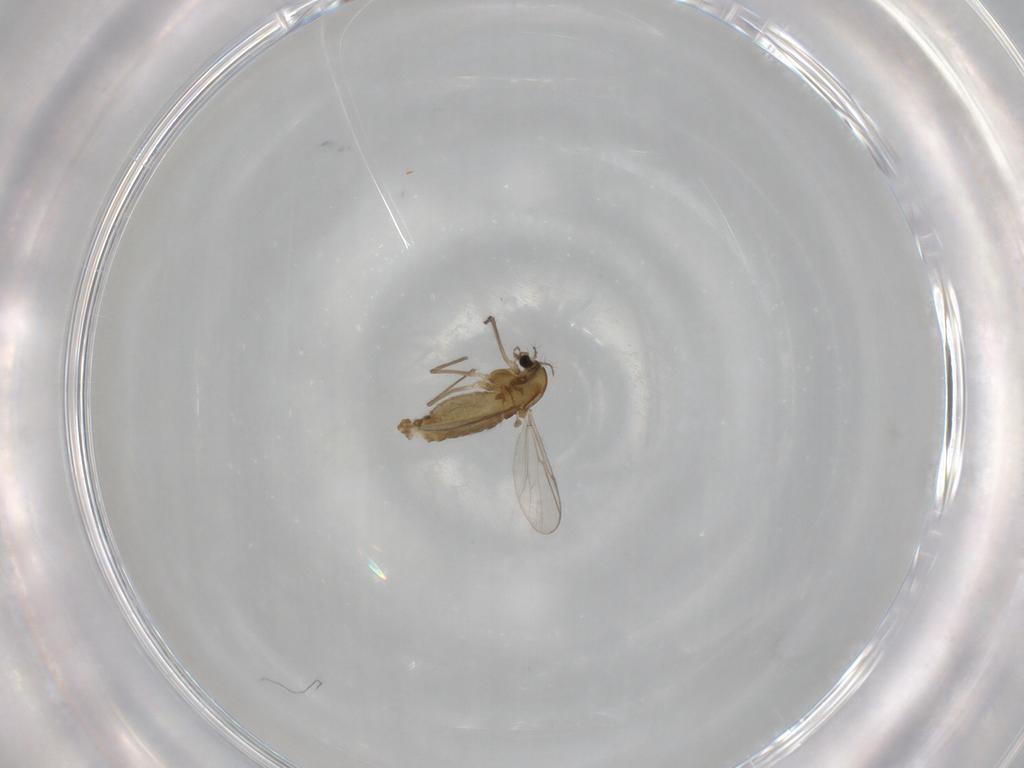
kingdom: Animalia
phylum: Arthropoda
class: Insecta
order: Diptera
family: Chironomidae
